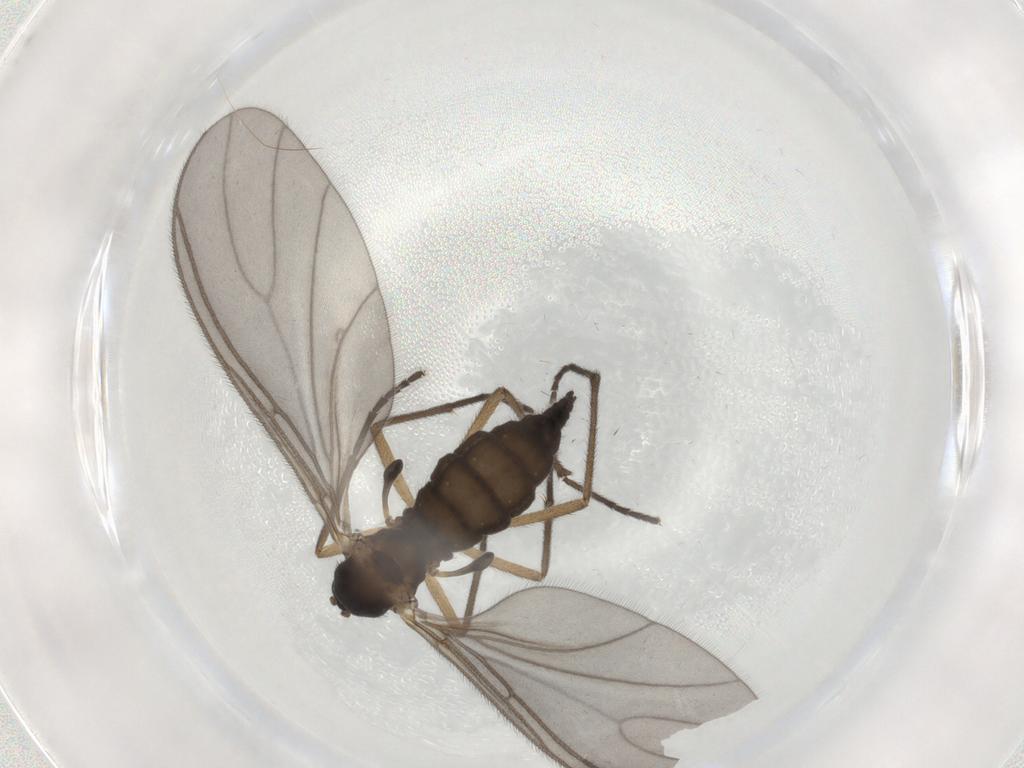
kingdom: Animalia
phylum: Arthropoda
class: Insecta
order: Diptera
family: Sciaridae
